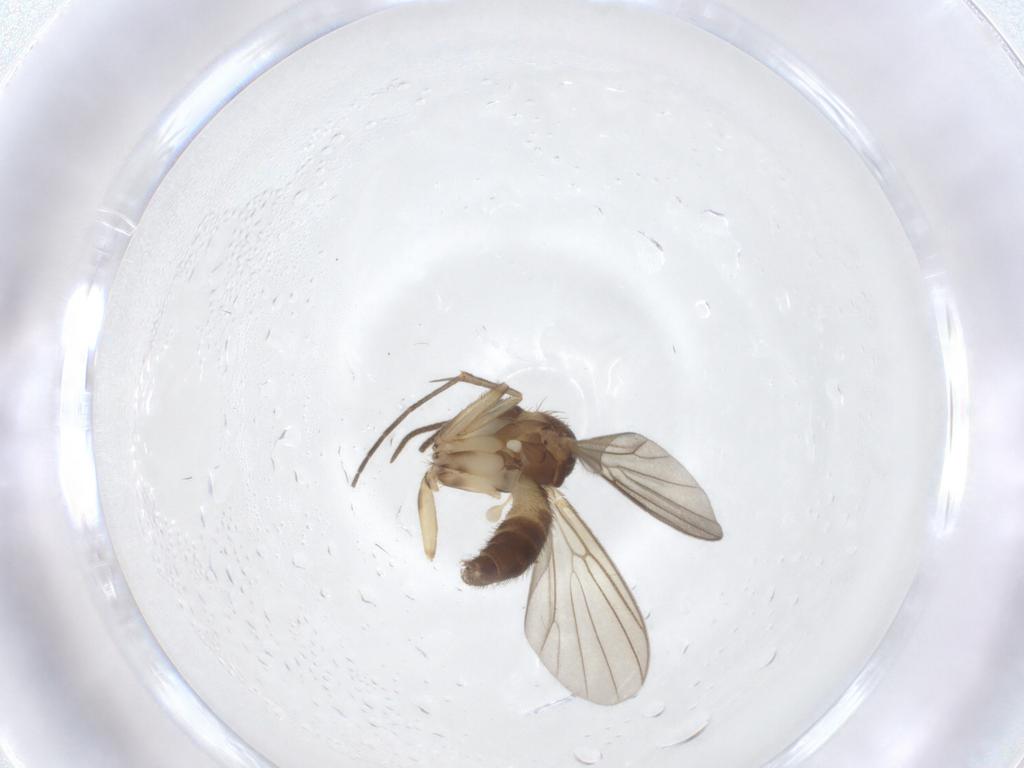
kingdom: Animalia
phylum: Arthropoda
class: Insecta
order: Diptera
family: Mycetophilidae
